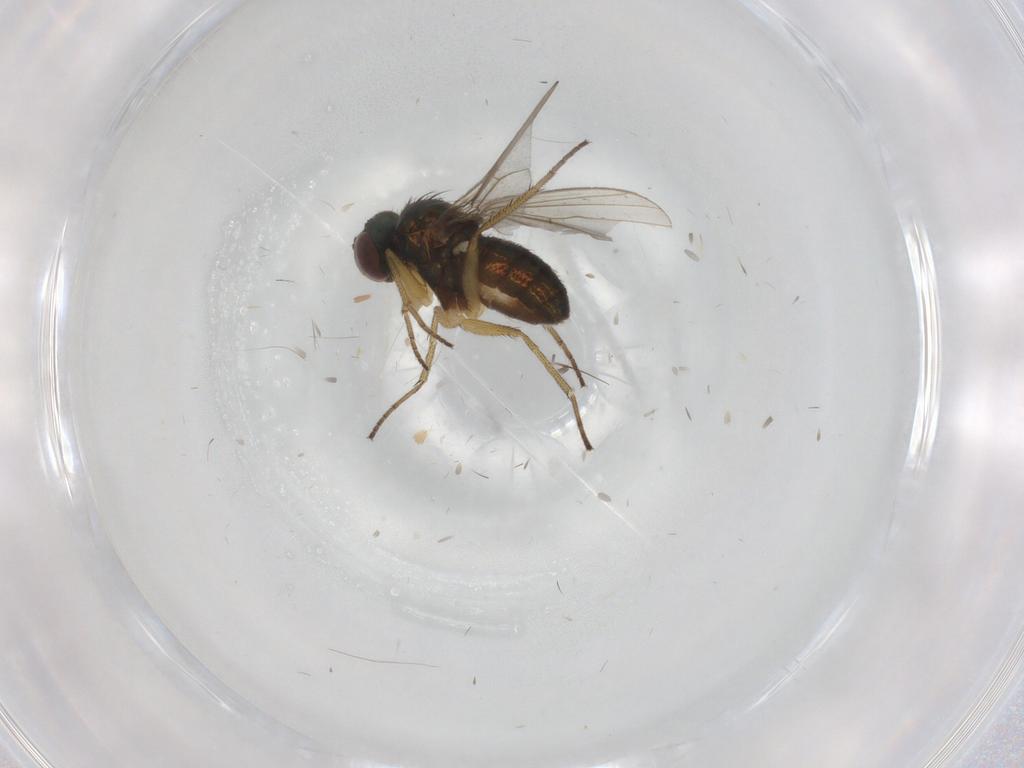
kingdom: Animalia
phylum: Arthropoda
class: Insecta
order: Diptera
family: Dolichopodidae
